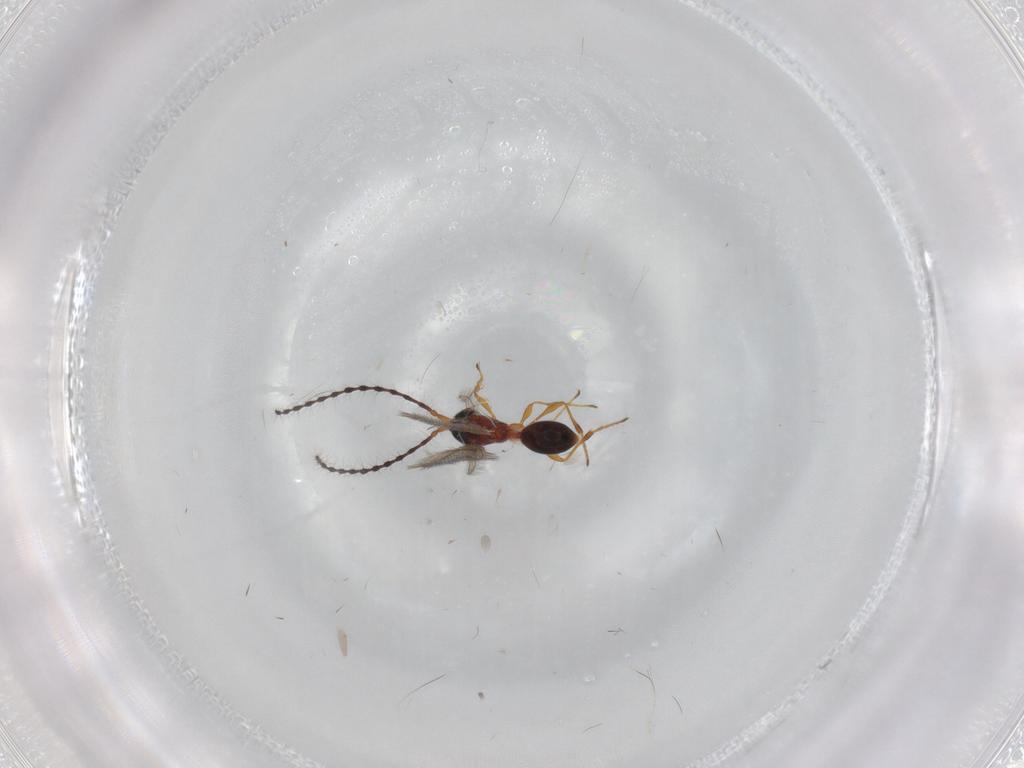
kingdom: Animalia
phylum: Arthropoda
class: Insecta
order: Hymenoptera
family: Diapriidae
